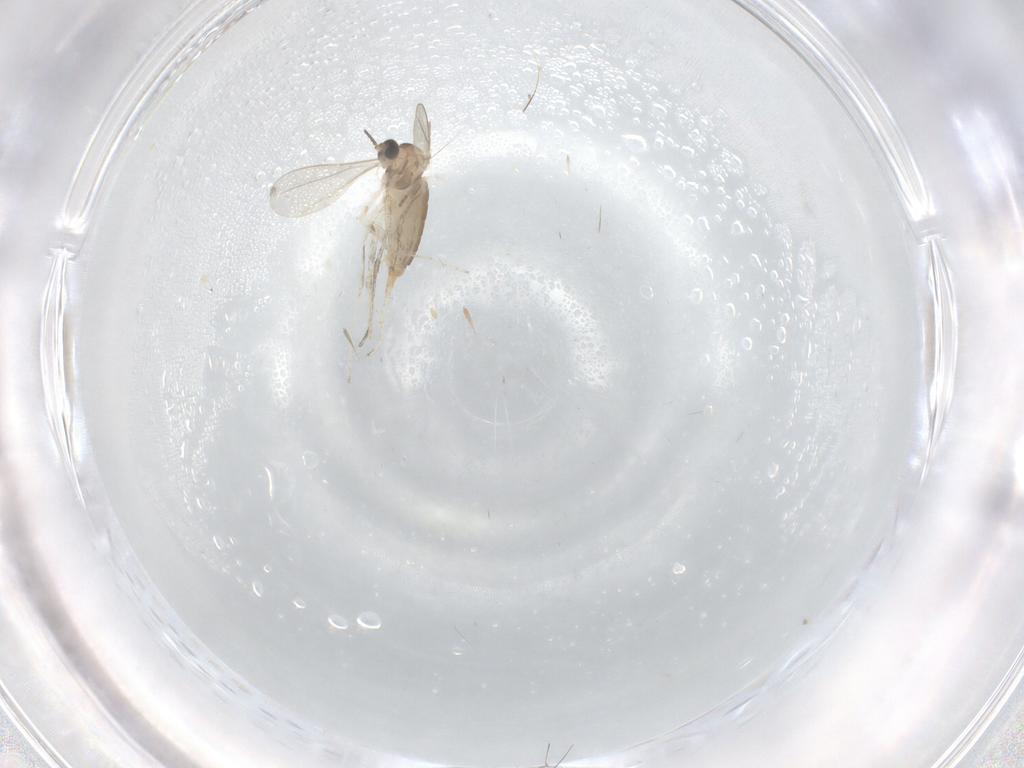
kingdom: Animalia
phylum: Arthropoda
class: Insecta
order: Diptera
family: Cecidomyiidae
